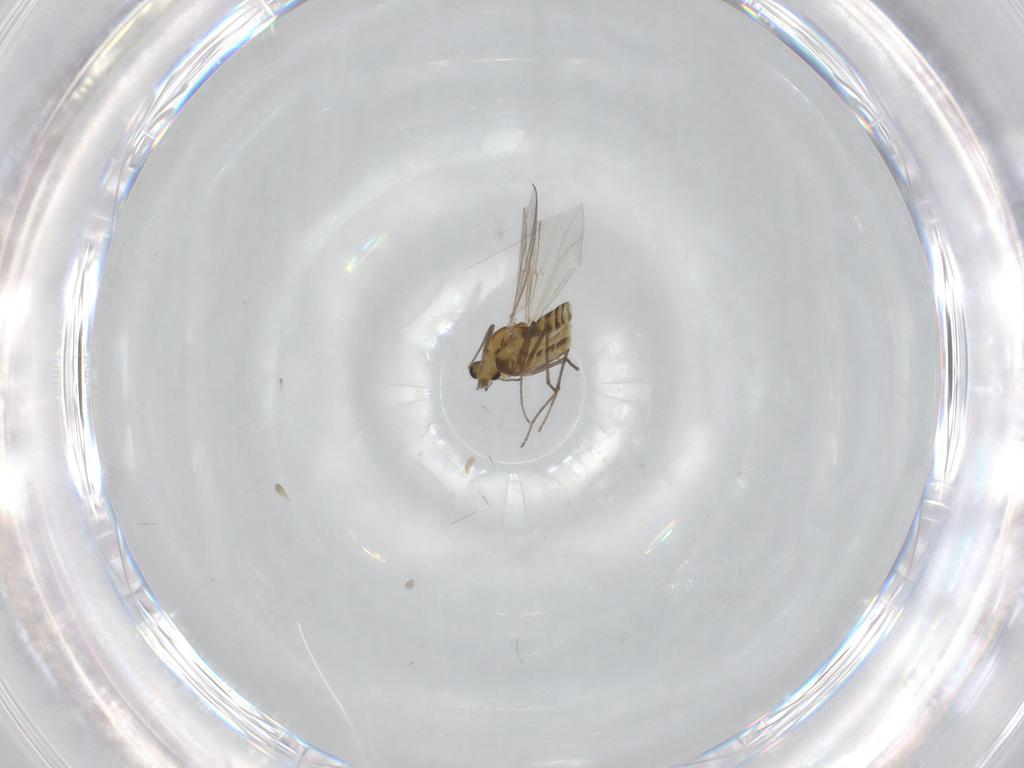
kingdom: Animalia
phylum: Arthropoda
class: Insecta
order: Diptera
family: Chironomidae
